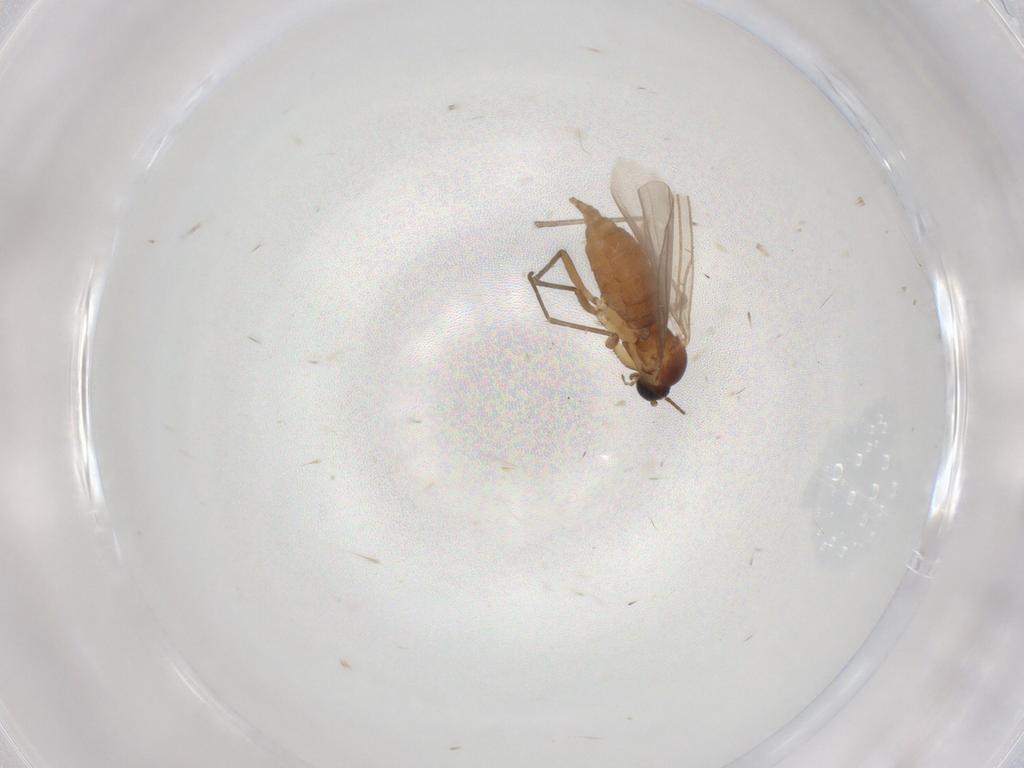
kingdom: Animalia
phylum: Arthropoda
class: Insecta
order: Diptera
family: Sciaridae
